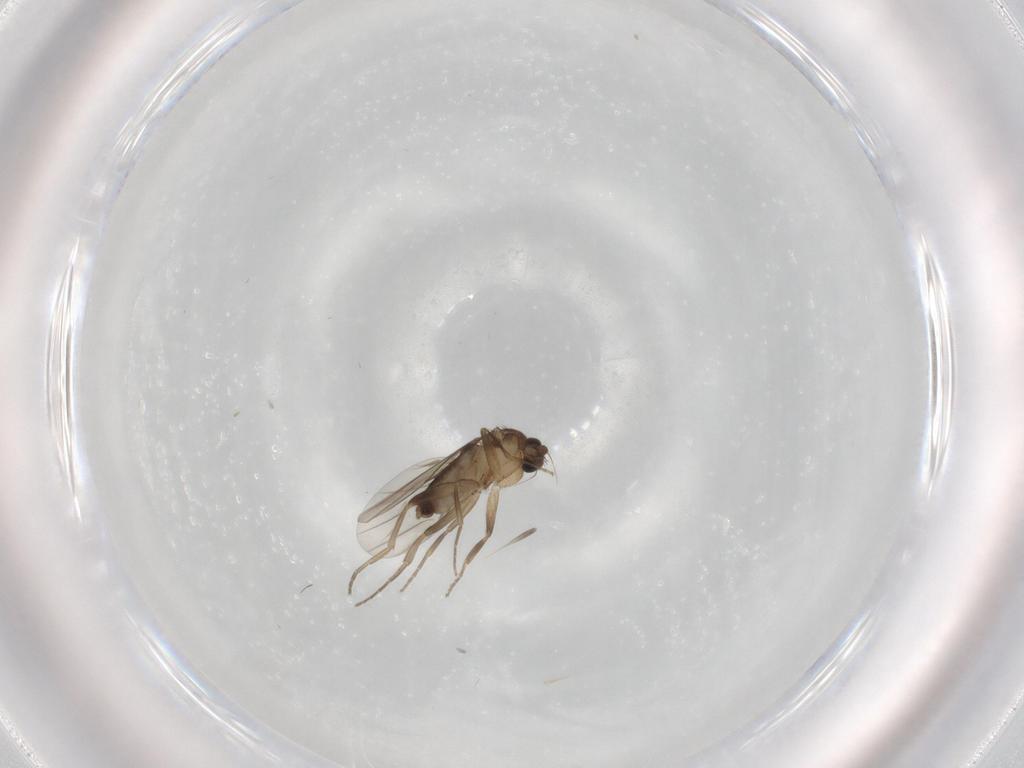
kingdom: Animalia
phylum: Arthropoda
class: Insecta
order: Diptera
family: Phoridae
